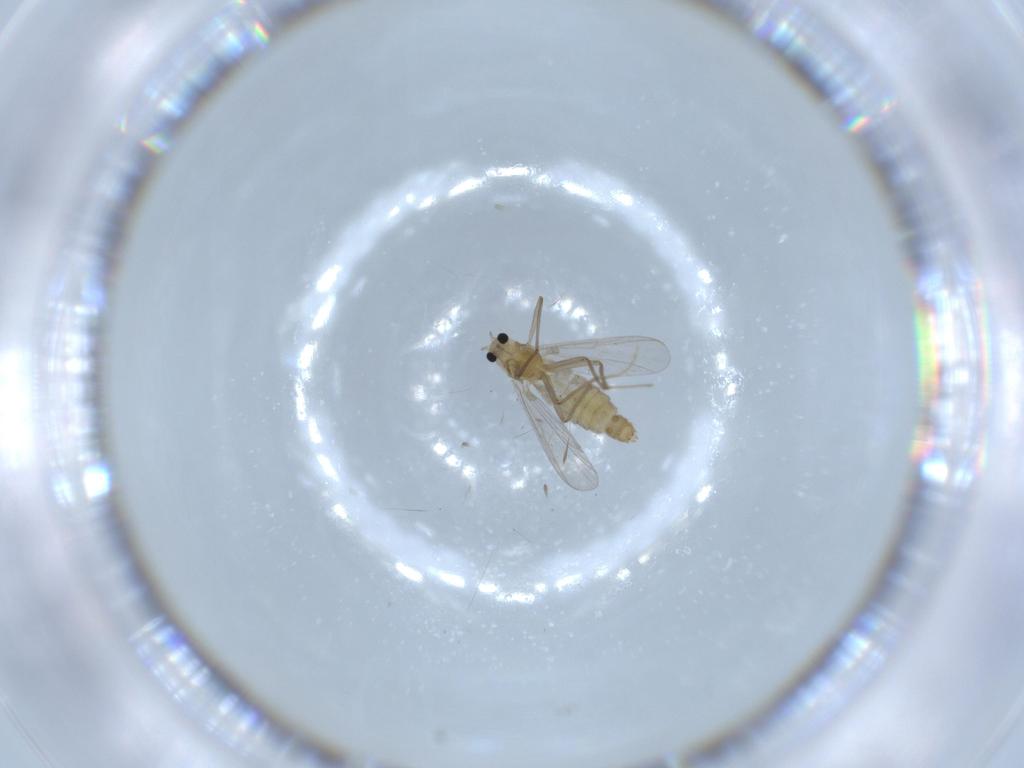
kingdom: Animalia
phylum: Arthropoda
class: Insecta
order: Diptera
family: Chironomidae
